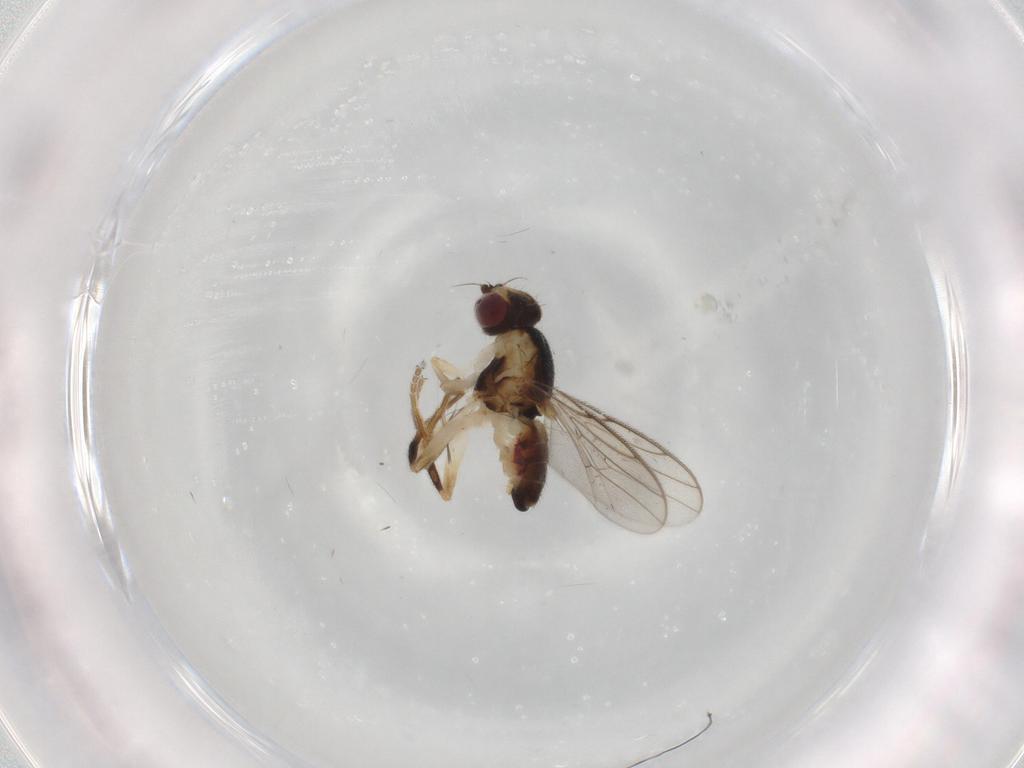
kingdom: Animalia
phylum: Arthropoda
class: Insecta
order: Diptera
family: Chloropidae
